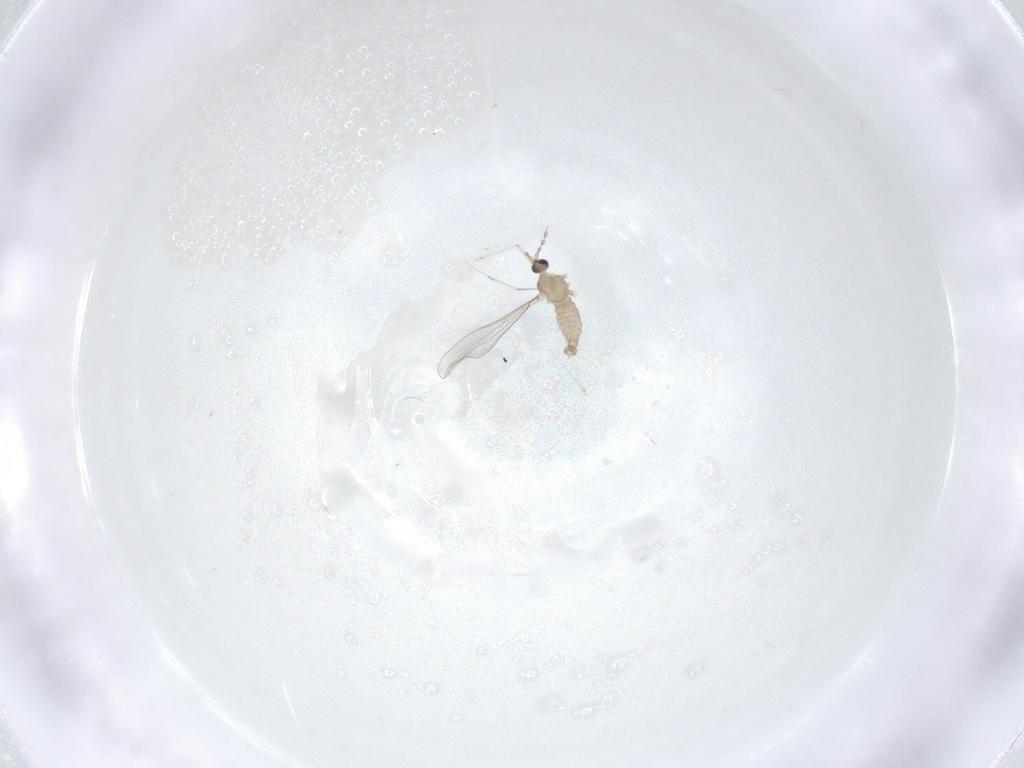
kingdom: Animalia
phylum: Arthropoda
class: Insecta
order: Diptera
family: Cecidomyiidae
